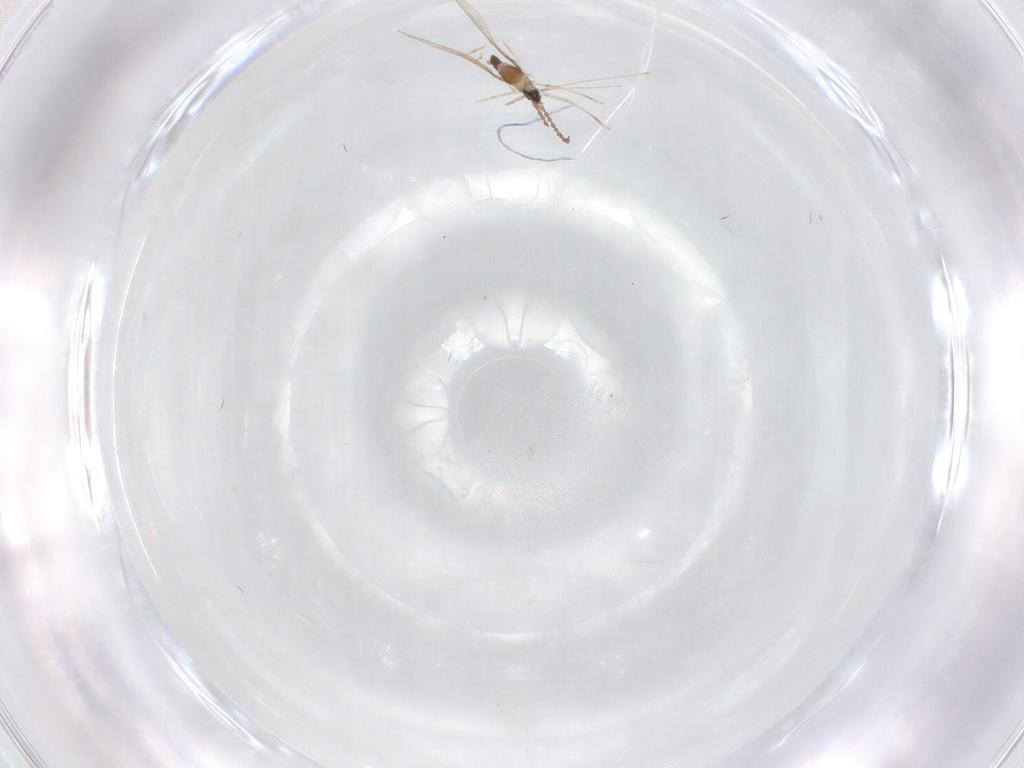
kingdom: Animalia
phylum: Arthropoda
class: Insecta
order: Diptera
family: Cecidomyiidae
